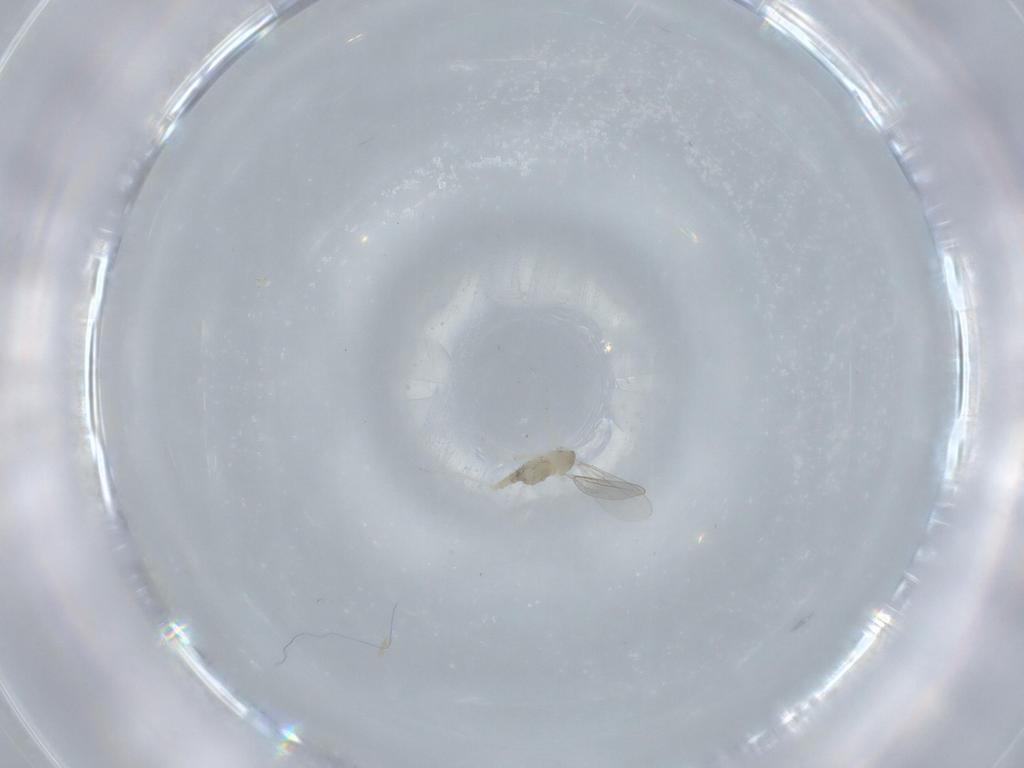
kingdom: Animalia
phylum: Arthropoda
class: Insecta
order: Diptera
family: Cecidomyiidae
